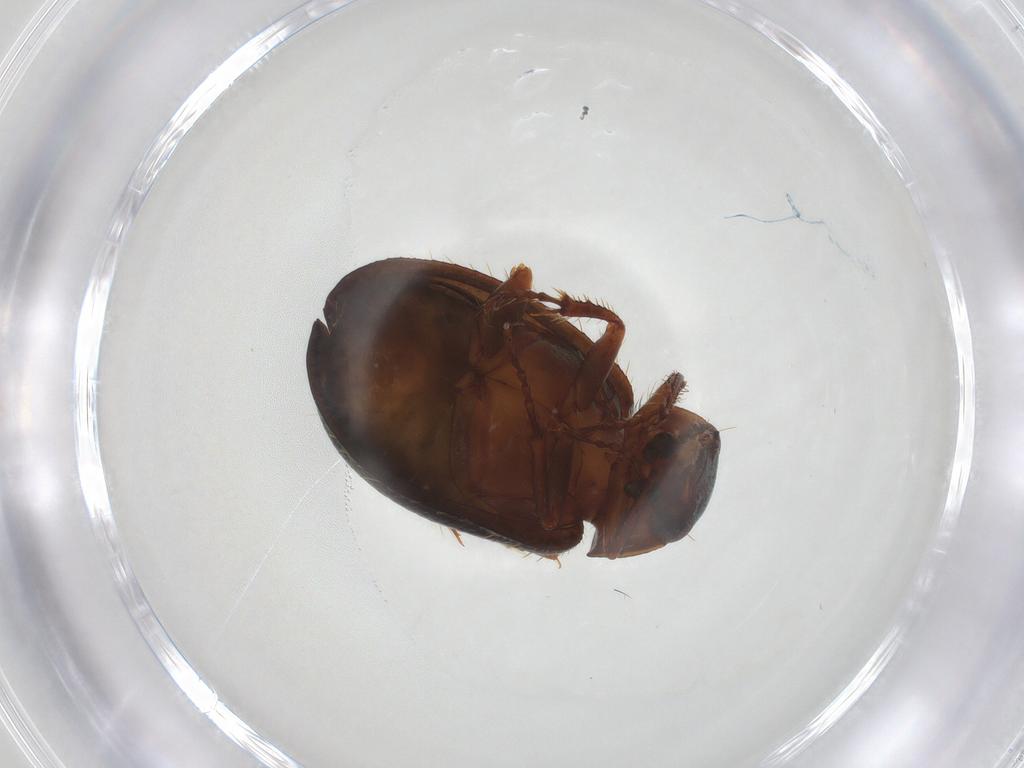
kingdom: Animalia
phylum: Arthropoda
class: Insecta
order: Coleoptera
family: Hybosoridae
